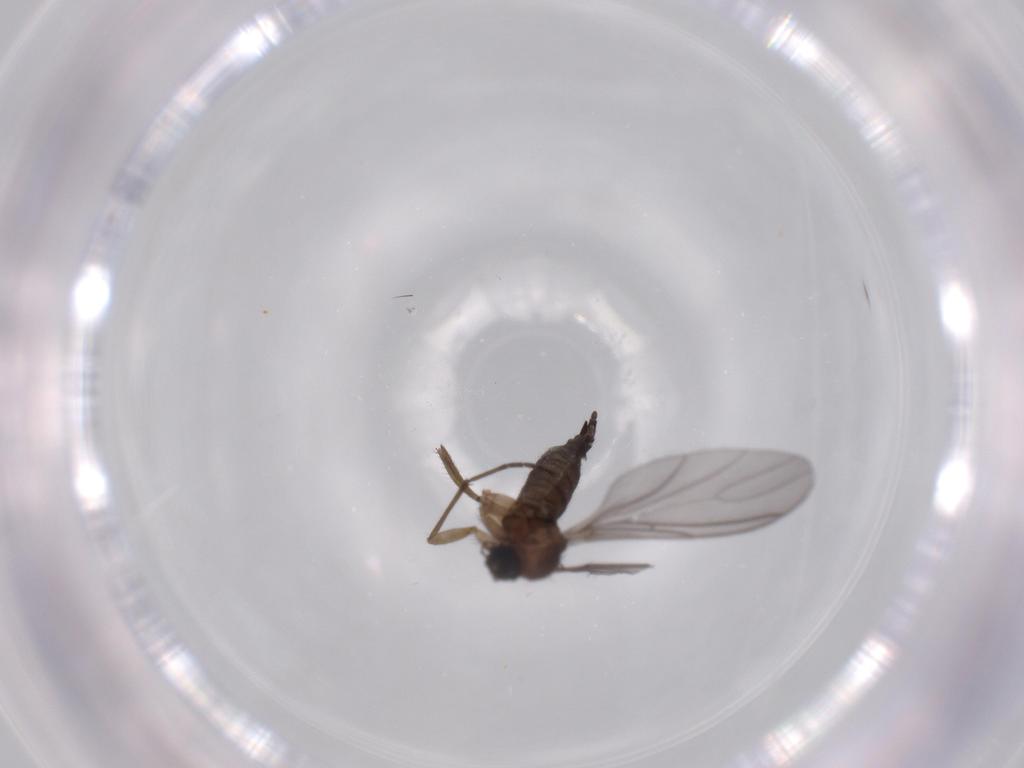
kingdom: Animalia
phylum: Arthropoda
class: Insecta
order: Diptera
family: Sciaridae
